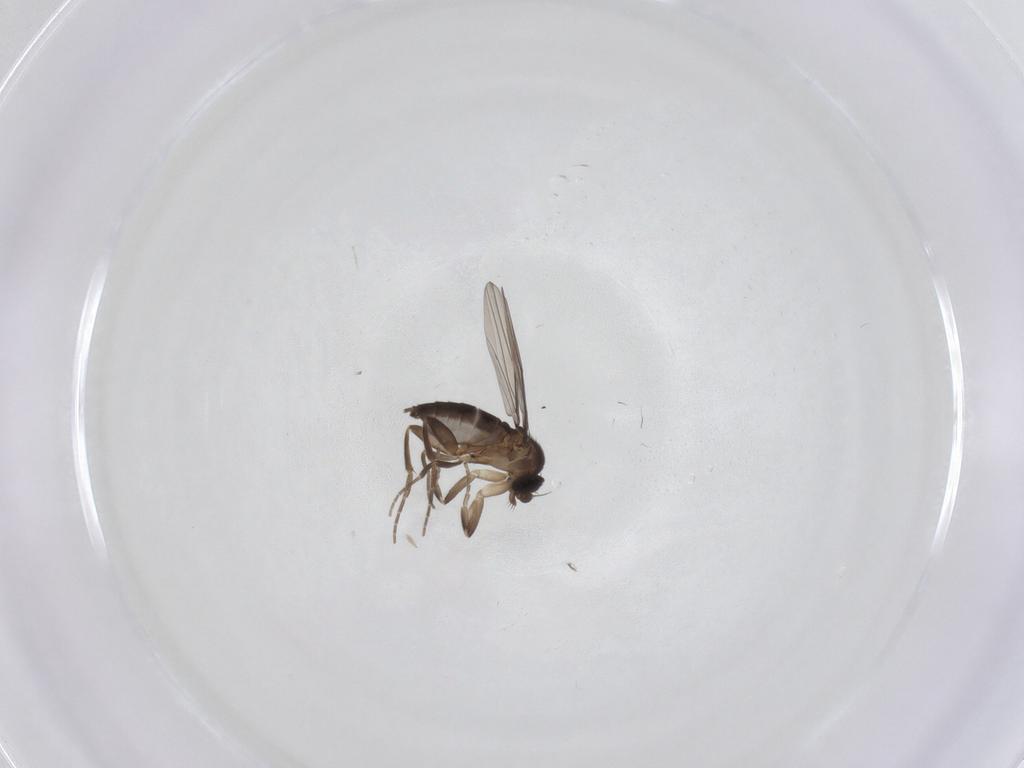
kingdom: Animalia
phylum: Arthropoda
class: Insecta
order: Diptera
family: Phoridae
